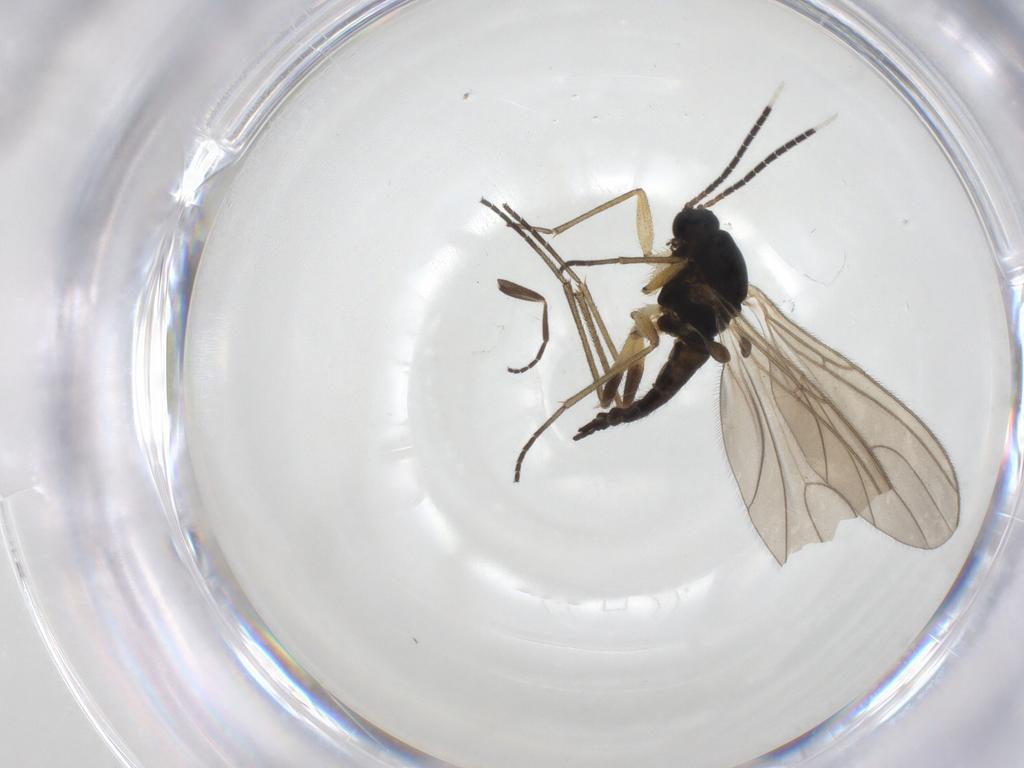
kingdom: Animalia
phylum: Arthropoda
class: Insecta
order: Diptera
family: Sciaridae
